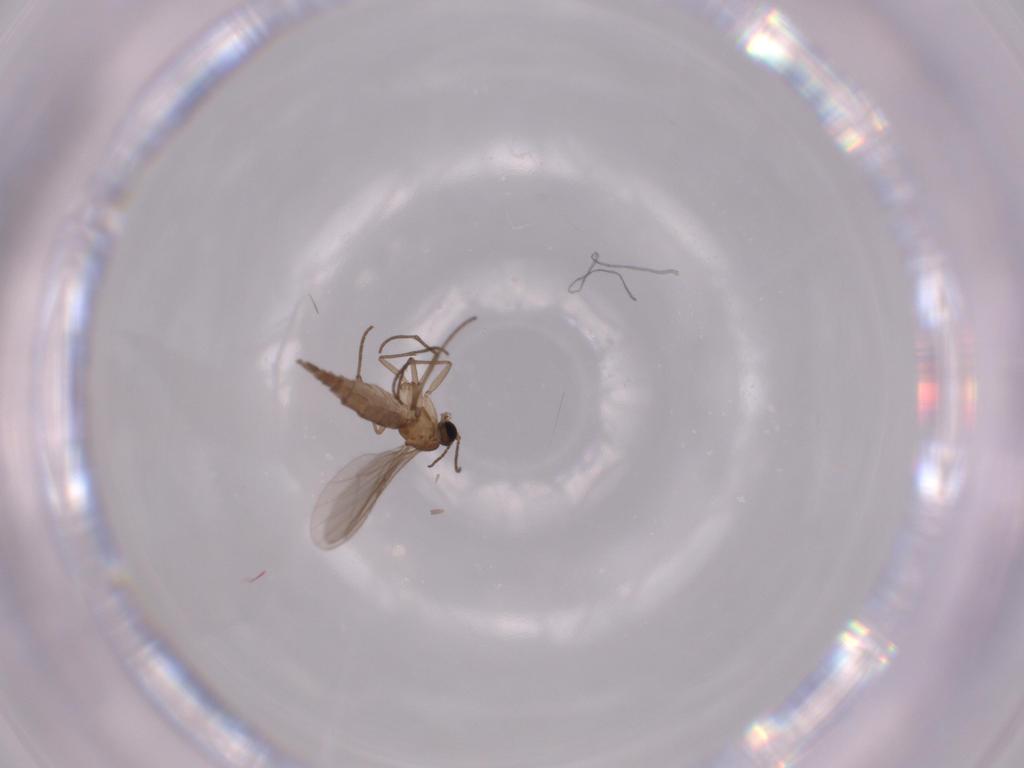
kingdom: Animalia
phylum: Arthropoda
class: Insecta
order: Diptera
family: Sciaridae
